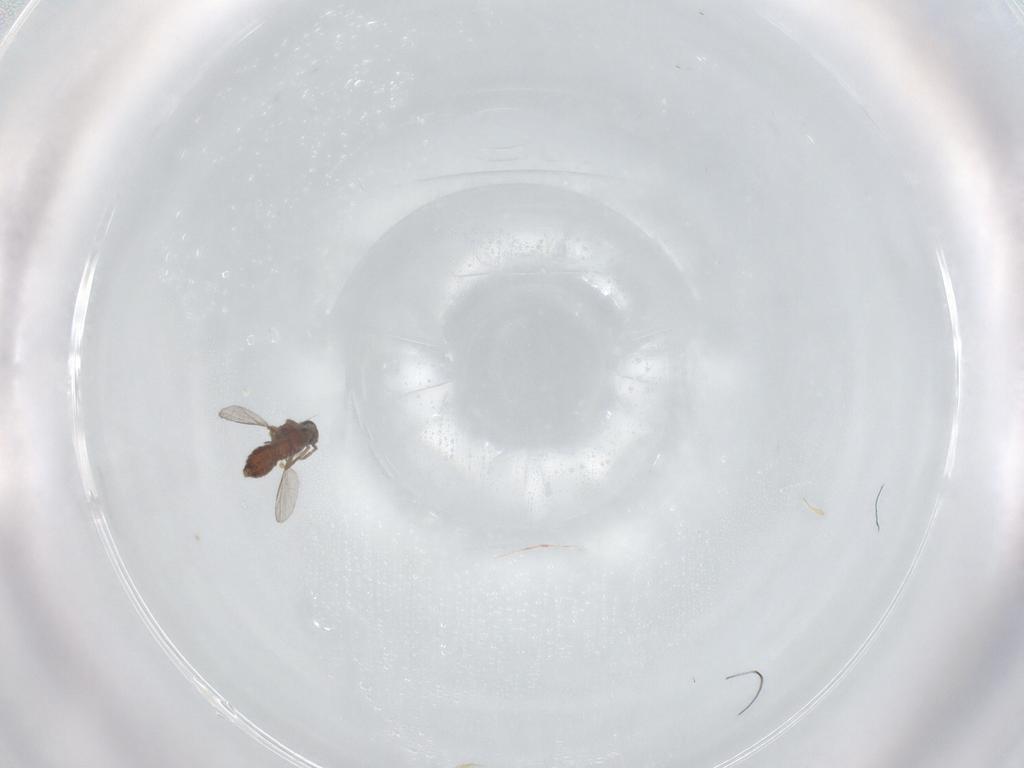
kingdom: Animalia
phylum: Arthropoda
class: Insecta
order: Diptera
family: Ceratopogonidae
